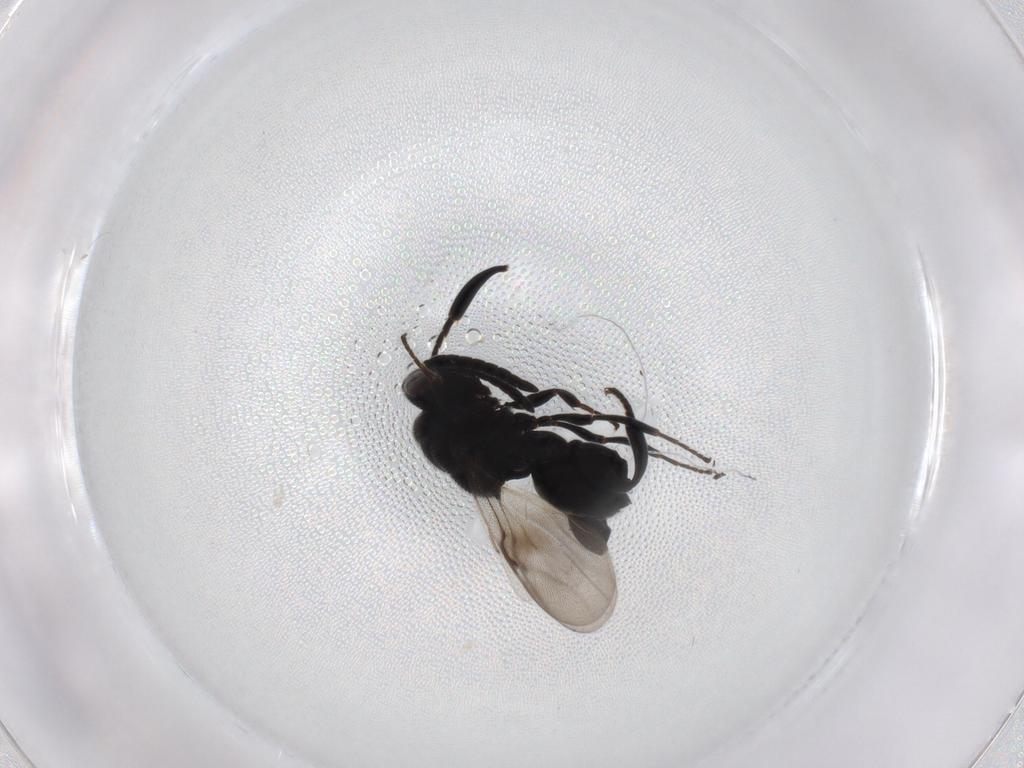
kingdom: Animalia
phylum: Arthropoda
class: Insecta
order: Hymenoptera
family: Mymaridae
